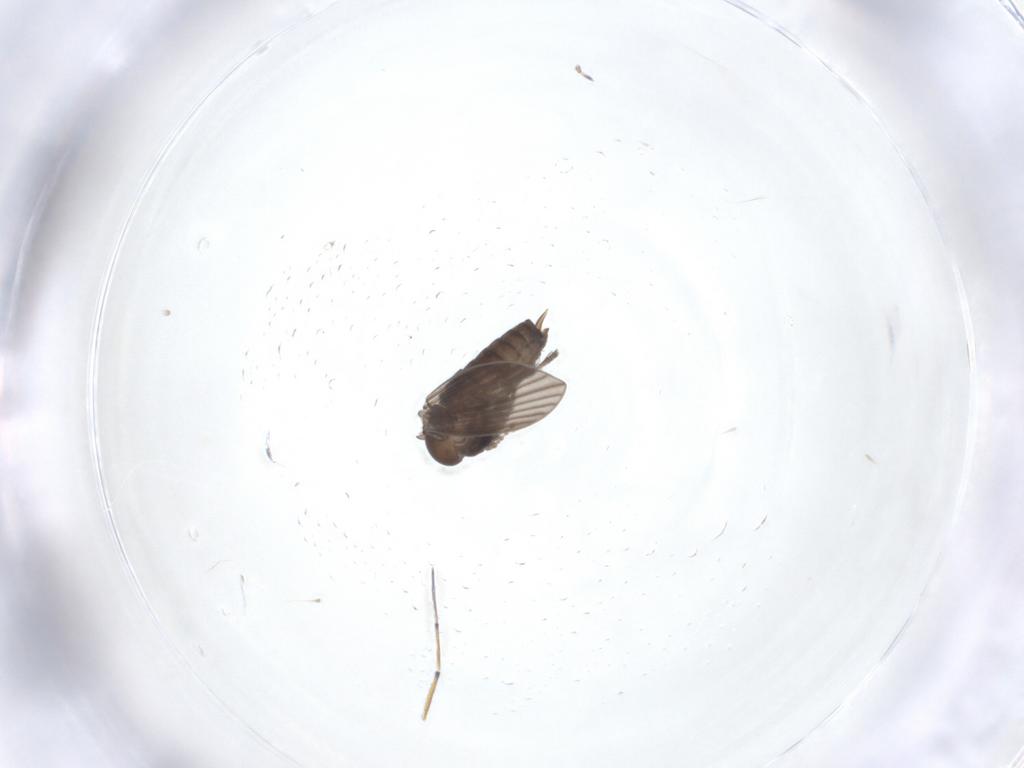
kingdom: Animalia
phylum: Arthropoda
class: Insecta
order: Diptera
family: Psychodidae
